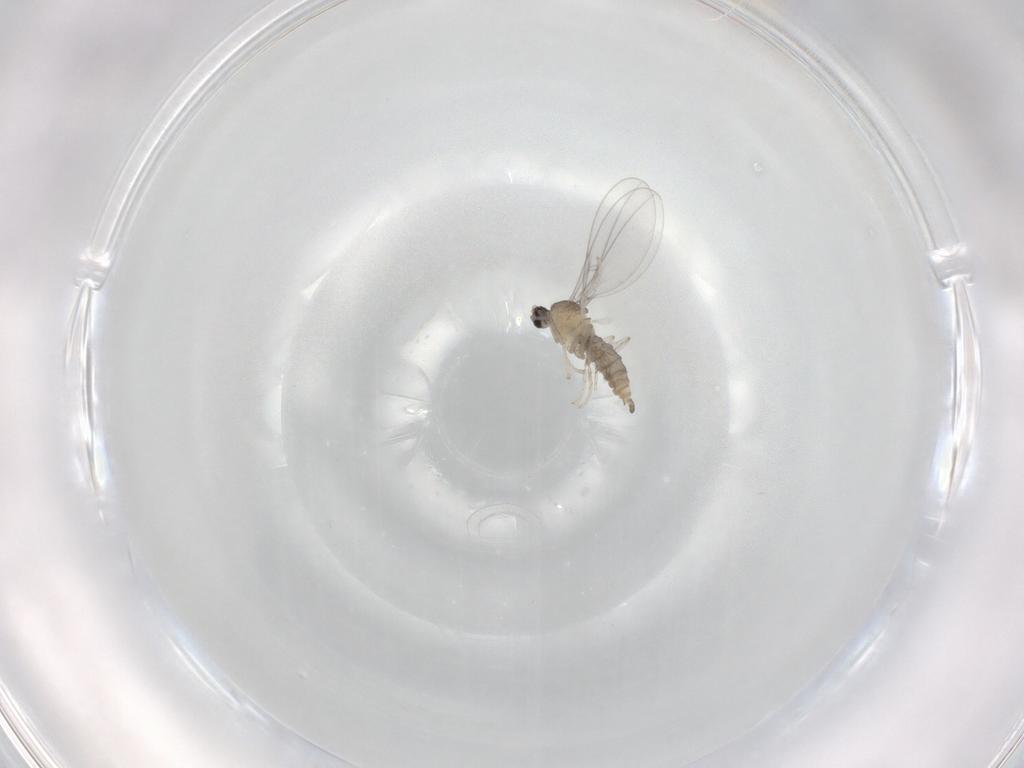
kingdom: Animalia
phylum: Arthropoda
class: Insecta
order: Diptera
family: Cecidomyiidae
